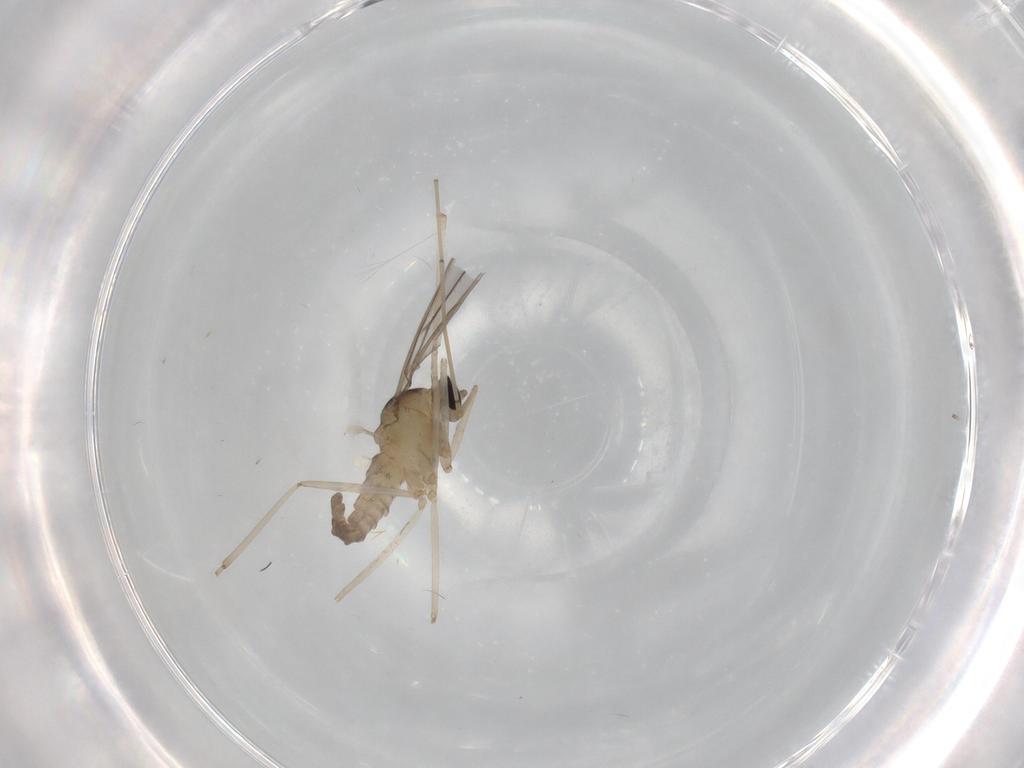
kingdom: Animalia
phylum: Arthropoda
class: Insecta
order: Diptera
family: Cecidomyiidae
